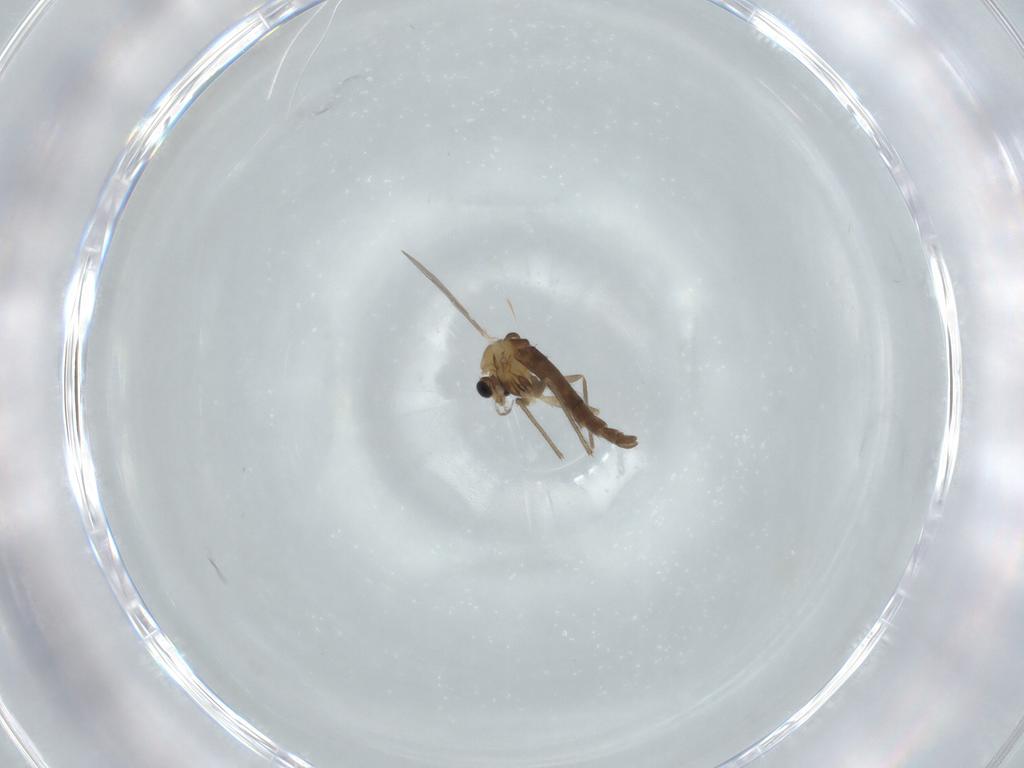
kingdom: Animalia
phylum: Arthropoda
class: Insecta
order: Diptera
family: Chironomidae
